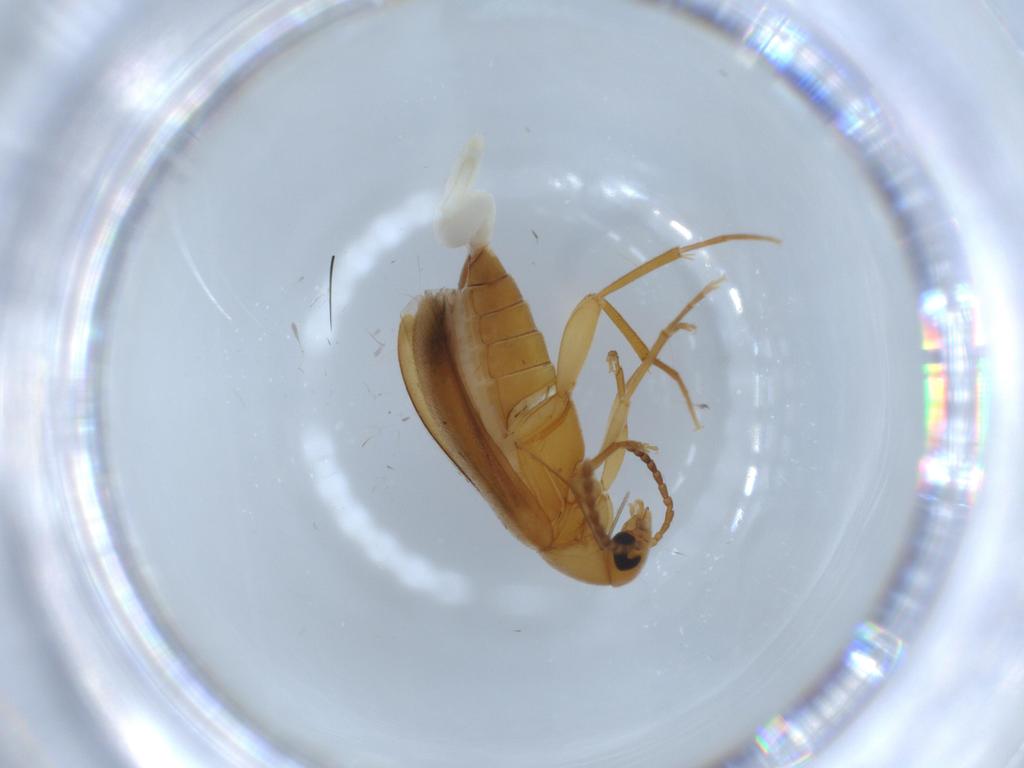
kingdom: Animalia
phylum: Arthropoda
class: Insecta
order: Coleoptera
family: Scraptiidae
